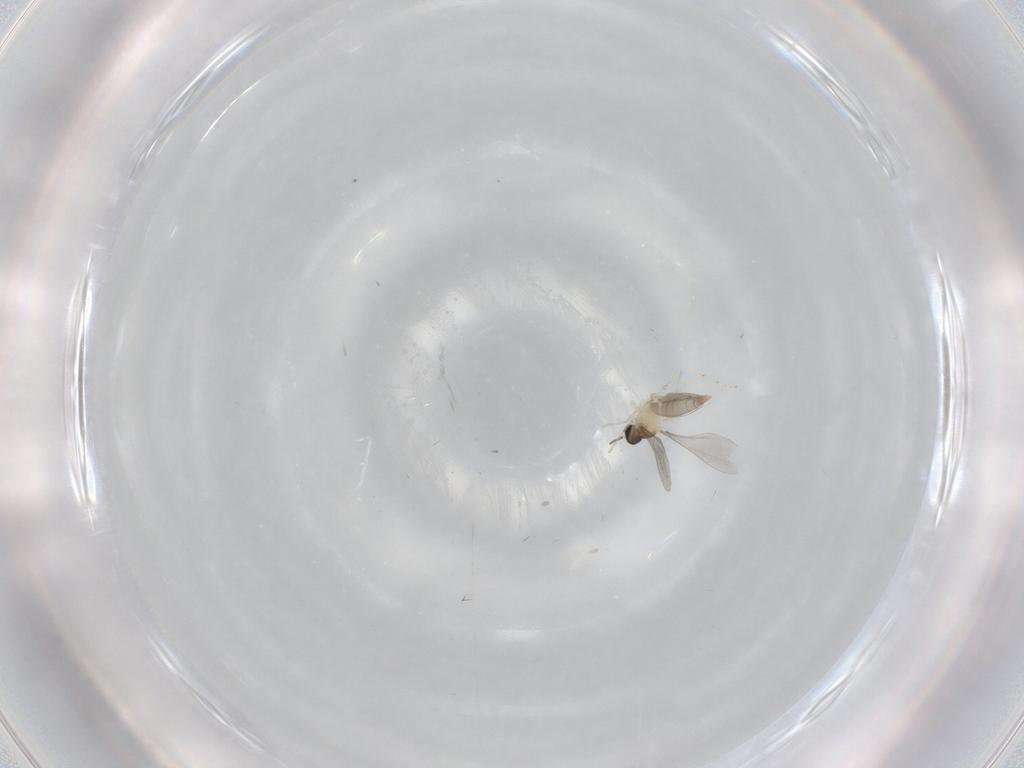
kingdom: Animalia
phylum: Arthropoda
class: Insecta
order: Diptera
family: Cecidomyiidae
